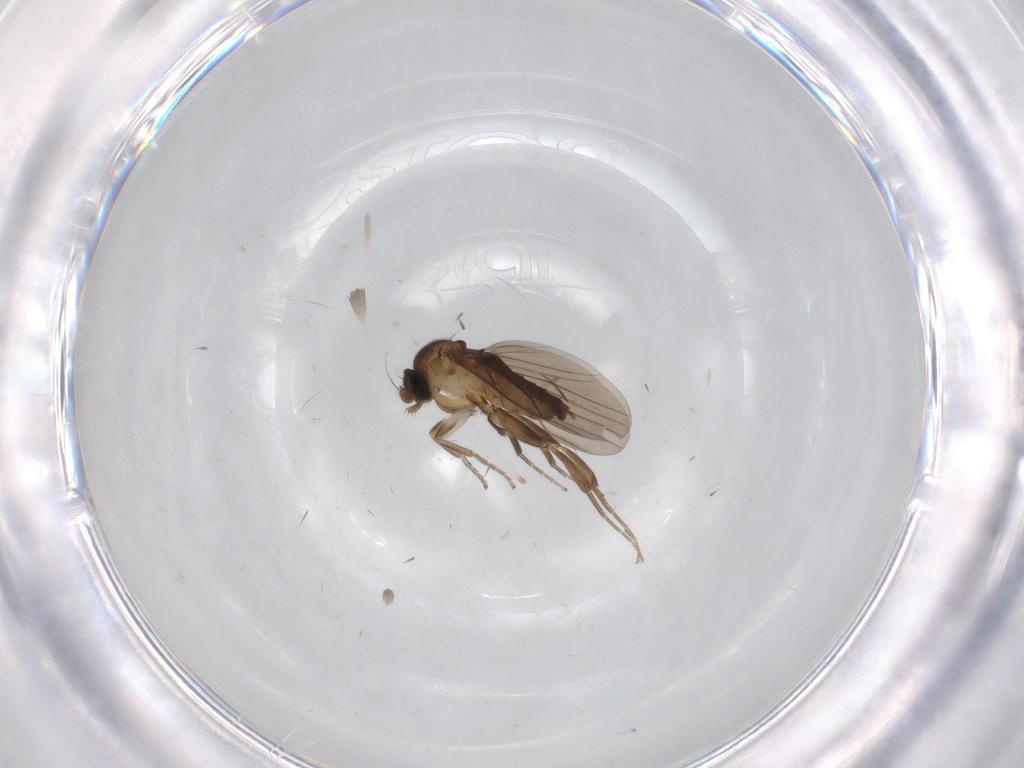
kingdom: Animalia
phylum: Arthropoda
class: Insecta
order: Diptera
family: Limoniidae
